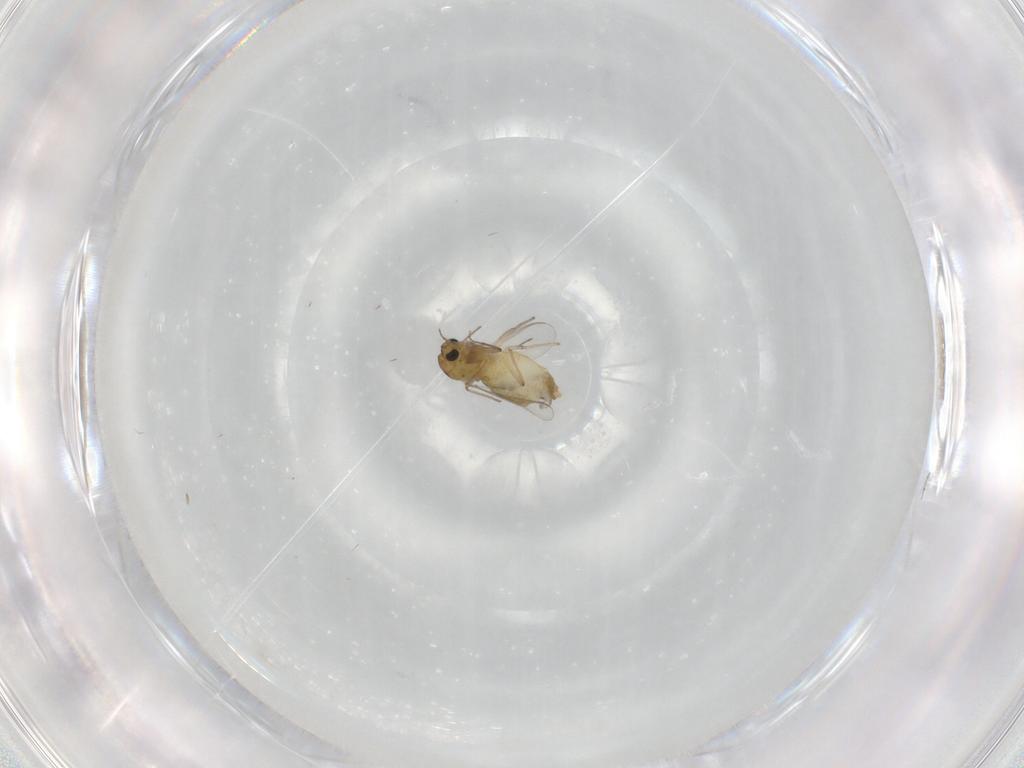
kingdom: Animalia
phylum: Arthropoda
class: Insecta
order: Diptera
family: Chironomidae
